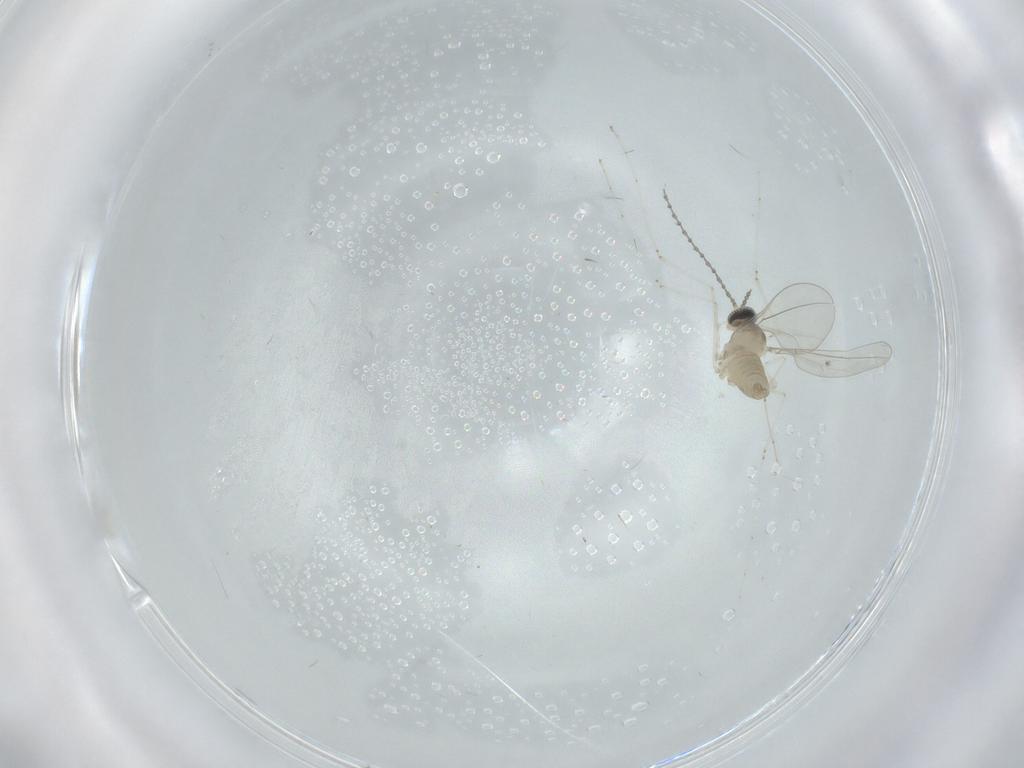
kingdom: Animalia
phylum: Arthropoda
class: Insecta
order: Diptera
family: Cecidomyiidae
